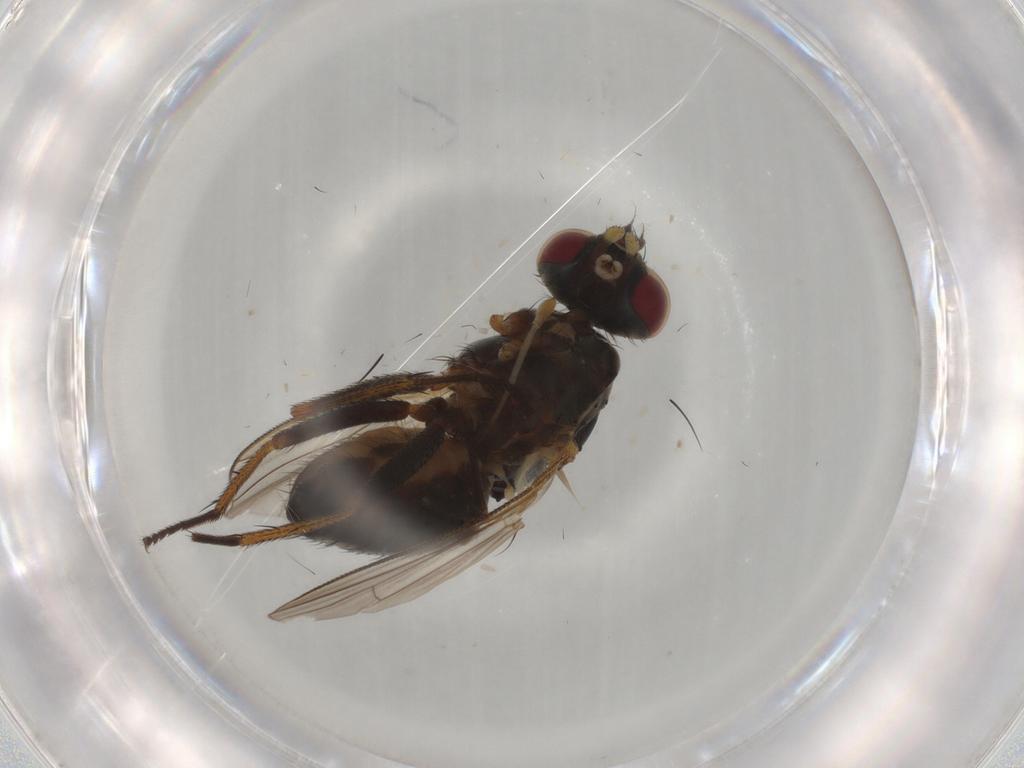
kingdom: Animalia
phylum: Arthropoda
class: Insecta
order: Diptera
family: Muscidae
